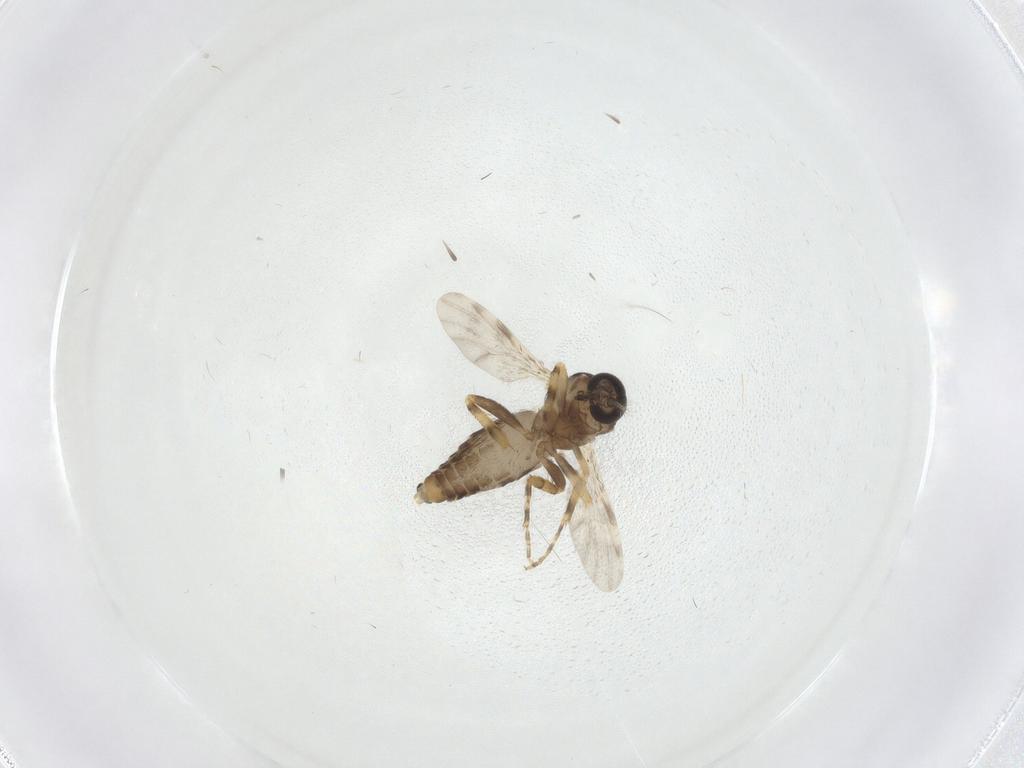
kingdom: Animalia
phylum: Arthropoda
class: Insecta
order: Diptera
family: Ceratopogonidae
